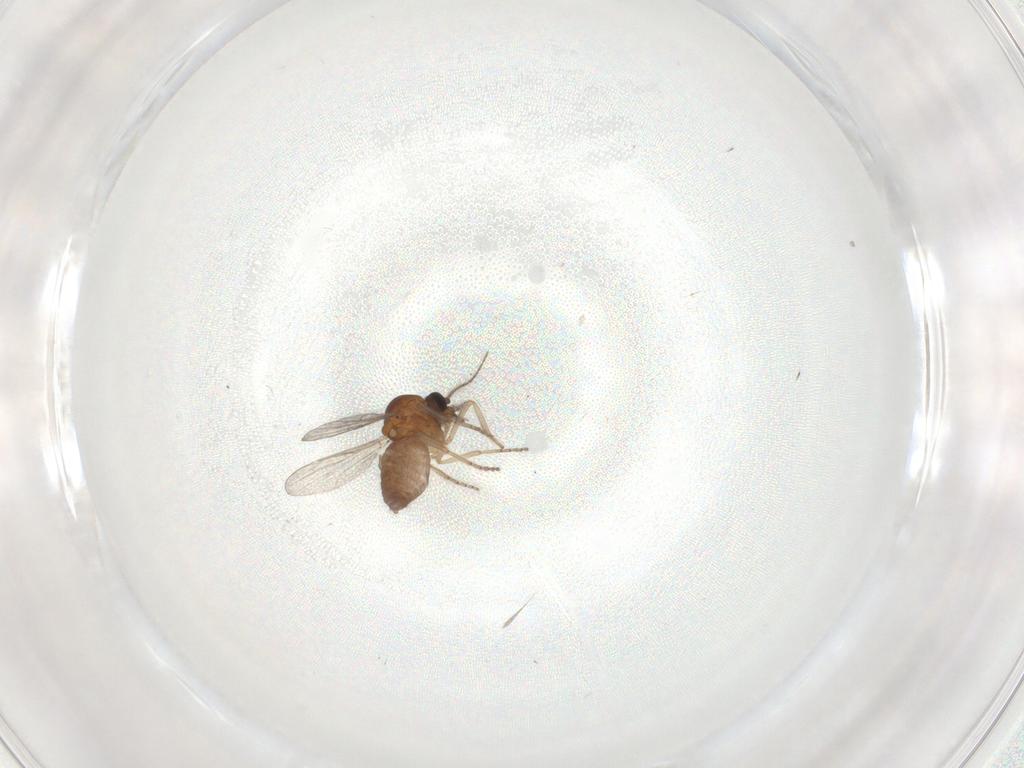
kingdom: Animalia
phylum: Arthropoda
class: Insecta
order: Diptera
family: Ceratopogonidae
